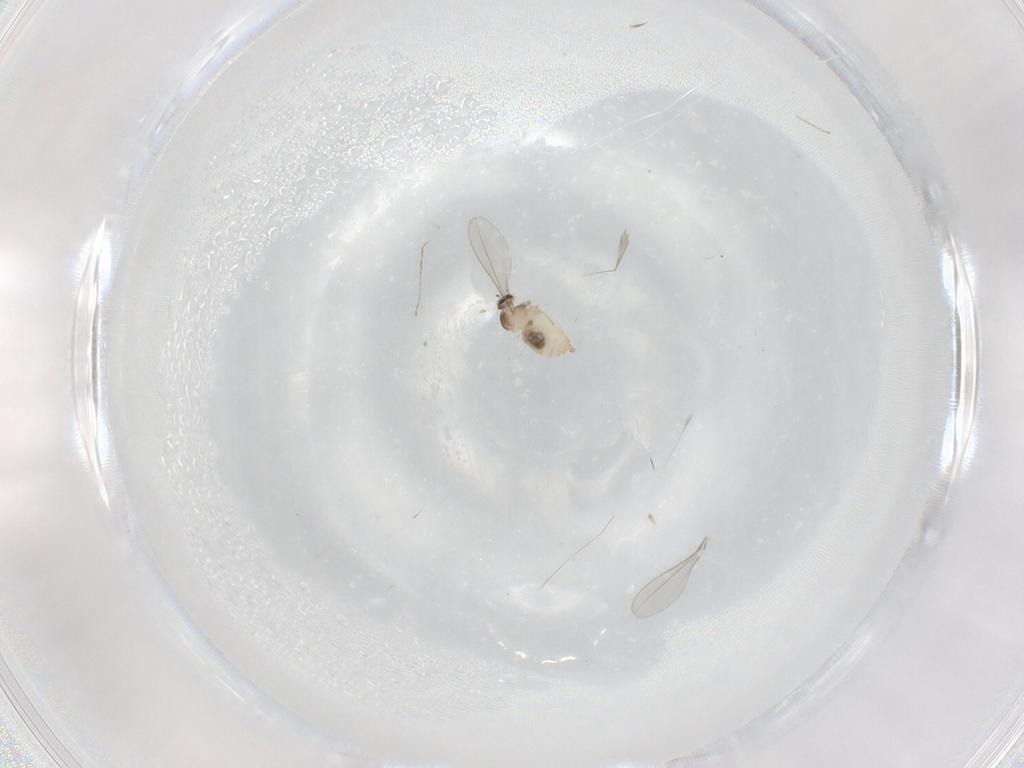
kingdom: Animalia
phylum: Arthropoda
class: Insecta
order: Diptera
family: Cecidomyiidae
